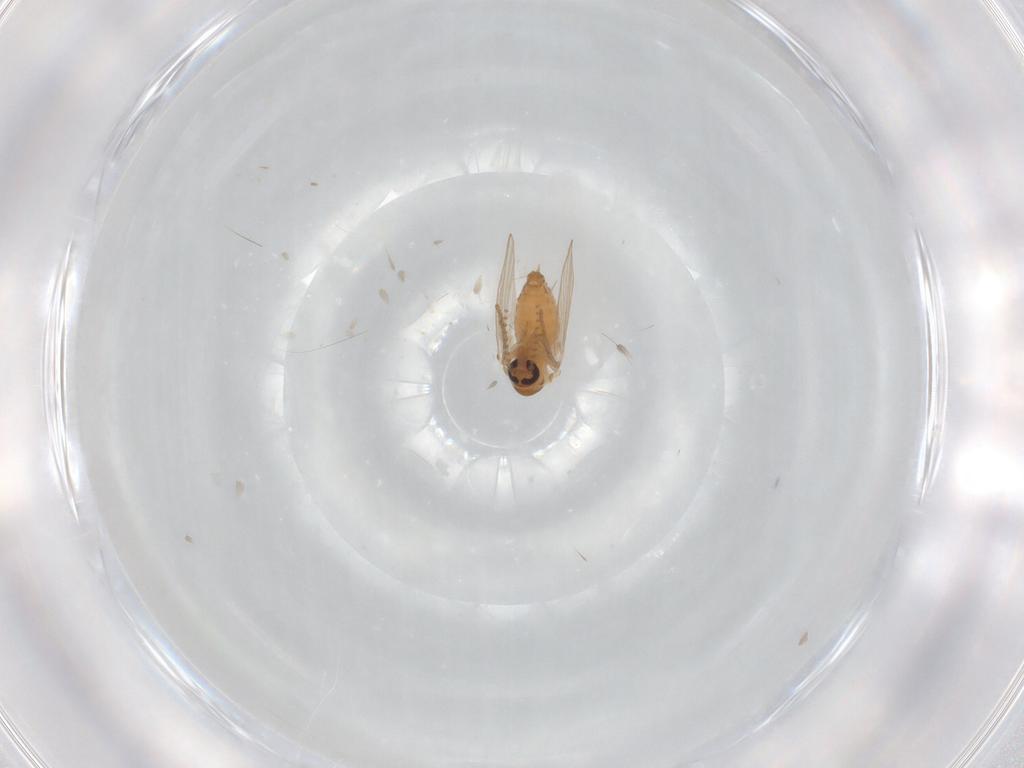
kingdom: Animalia
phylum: Arthropoda
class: Insecta
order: Diptera
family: Psychodidae
